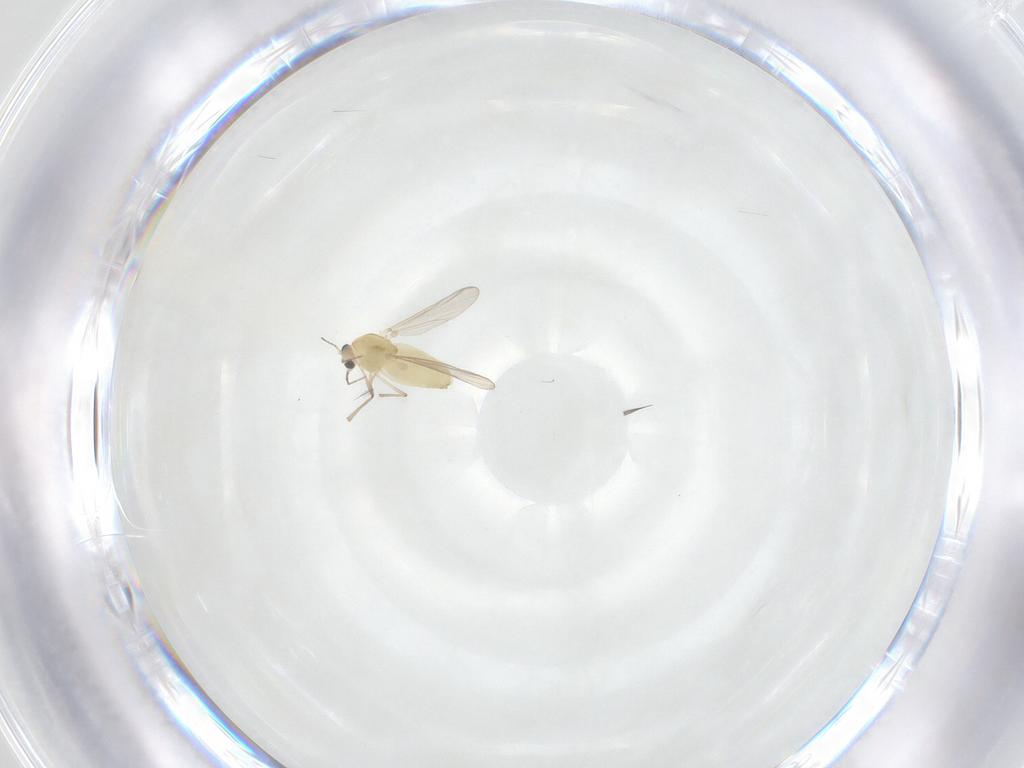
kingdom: Animalia
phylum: Arthropoda
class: Insecta
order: Diptera
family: Chironomidae
